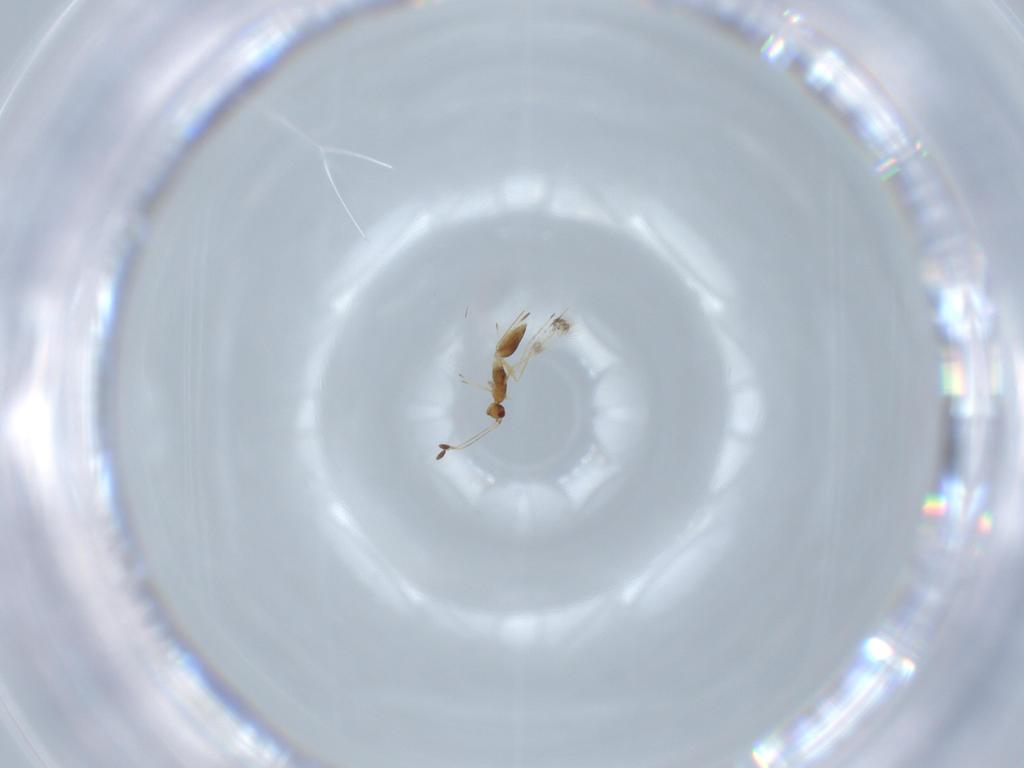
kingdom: Animalia
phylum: Arthropoda
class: Insecta
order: Hymenoptera
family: Mymaridae
